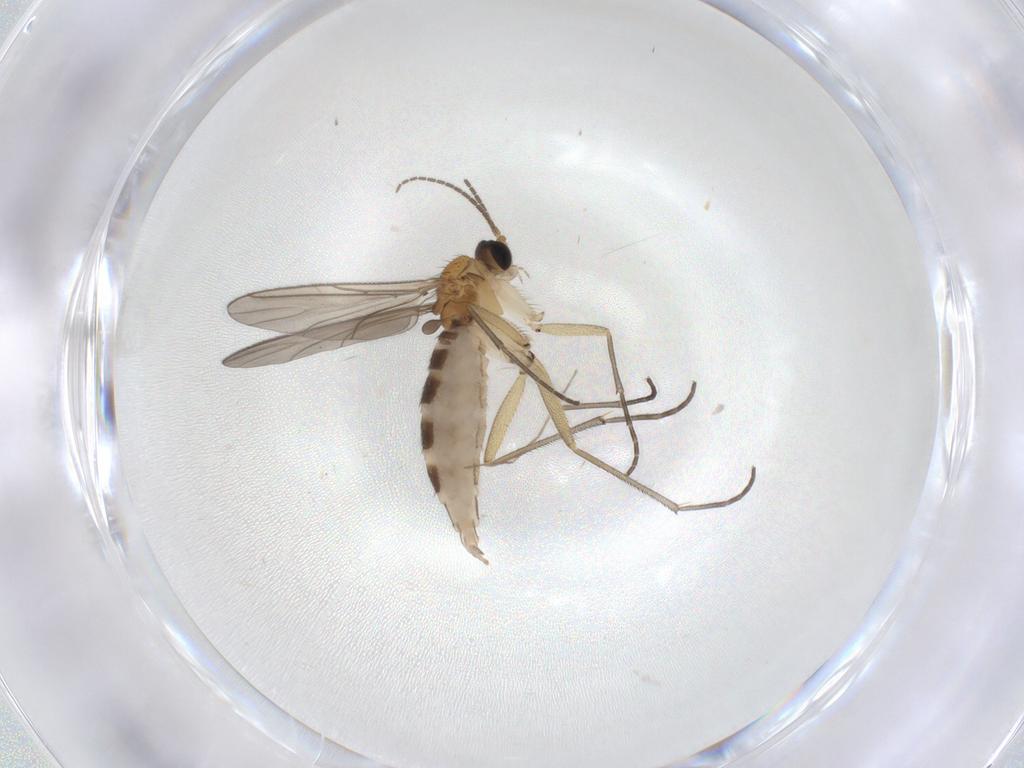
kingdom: Animalia
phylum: Arthropoda
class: Insecta
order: Diptera
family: Chironomidae
